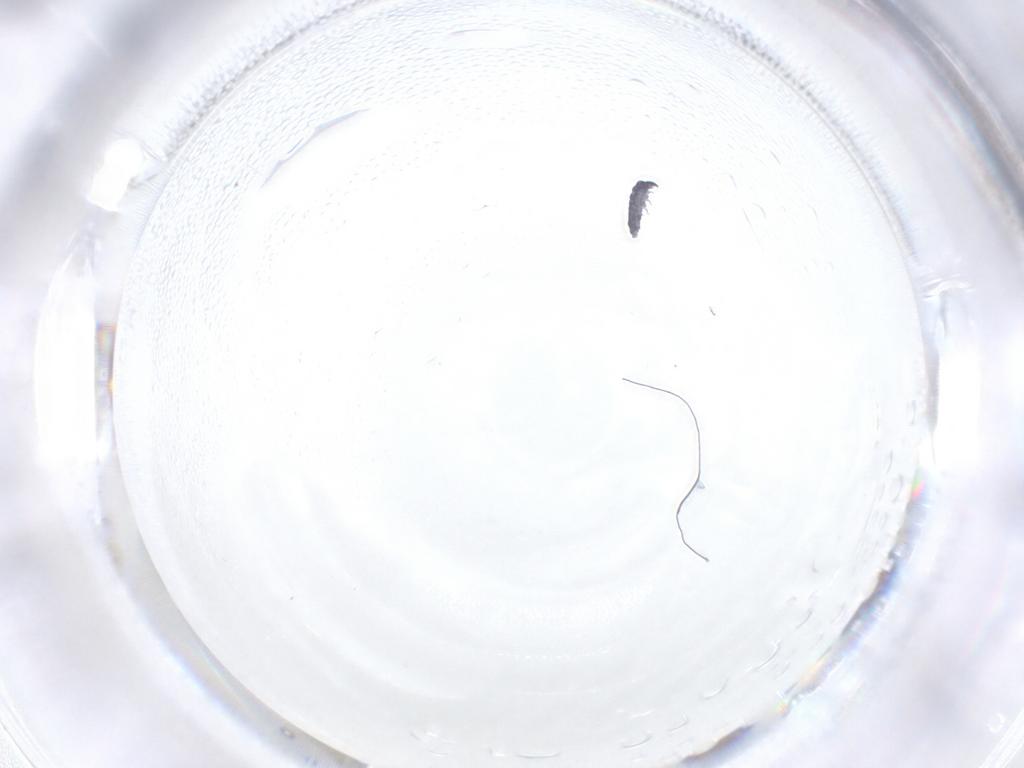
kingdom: Animalia
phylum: Arthropoda
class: Collembola
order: Poduromorpha
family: Hypogastruridae
